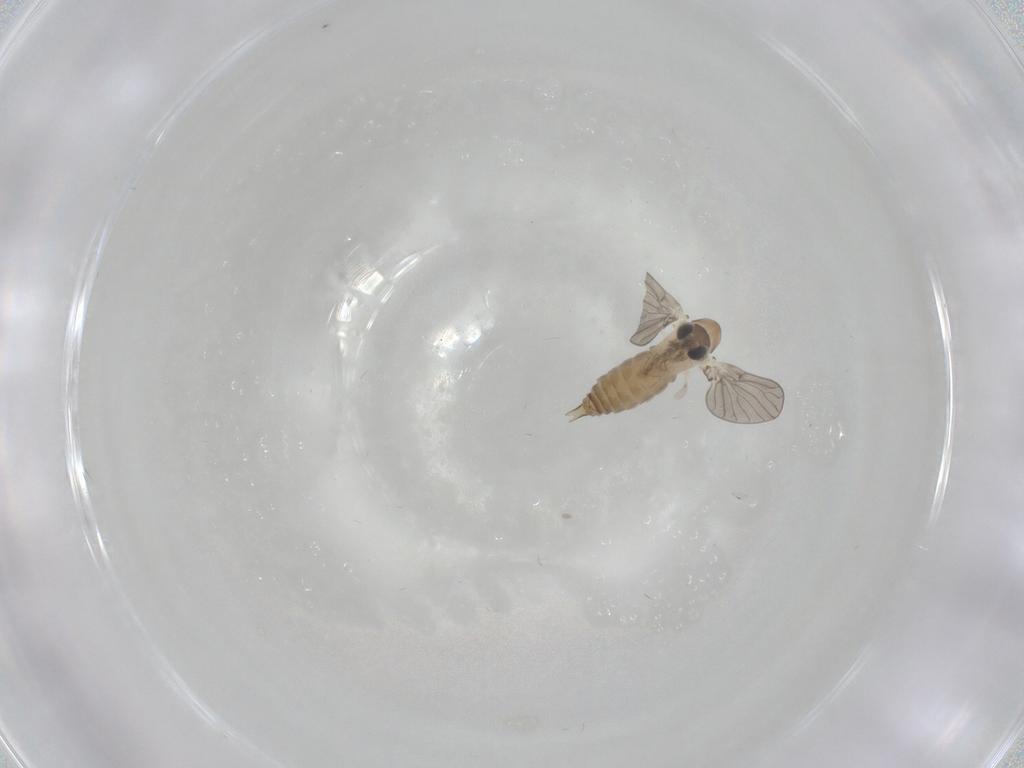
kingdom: Animalia
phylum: Arthropoda
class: Insecta
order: Diptera
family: Psychodidae
